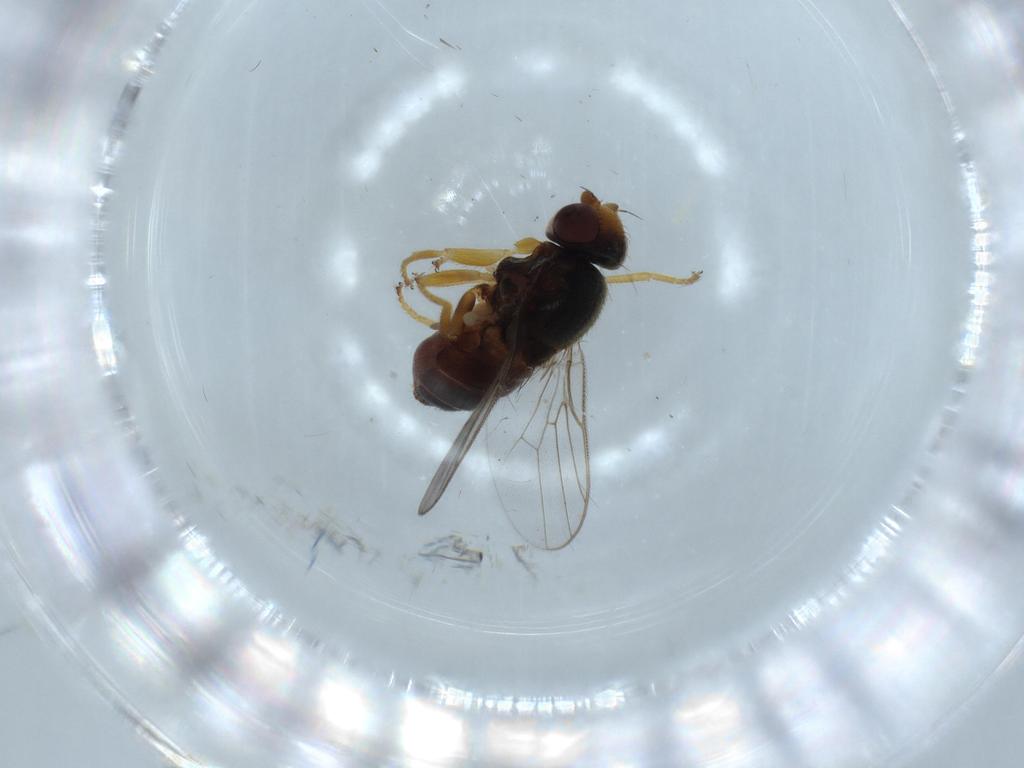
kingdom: Animalia
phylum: Arthropoda
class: Insecta
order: Diptera
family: Chloropidae
